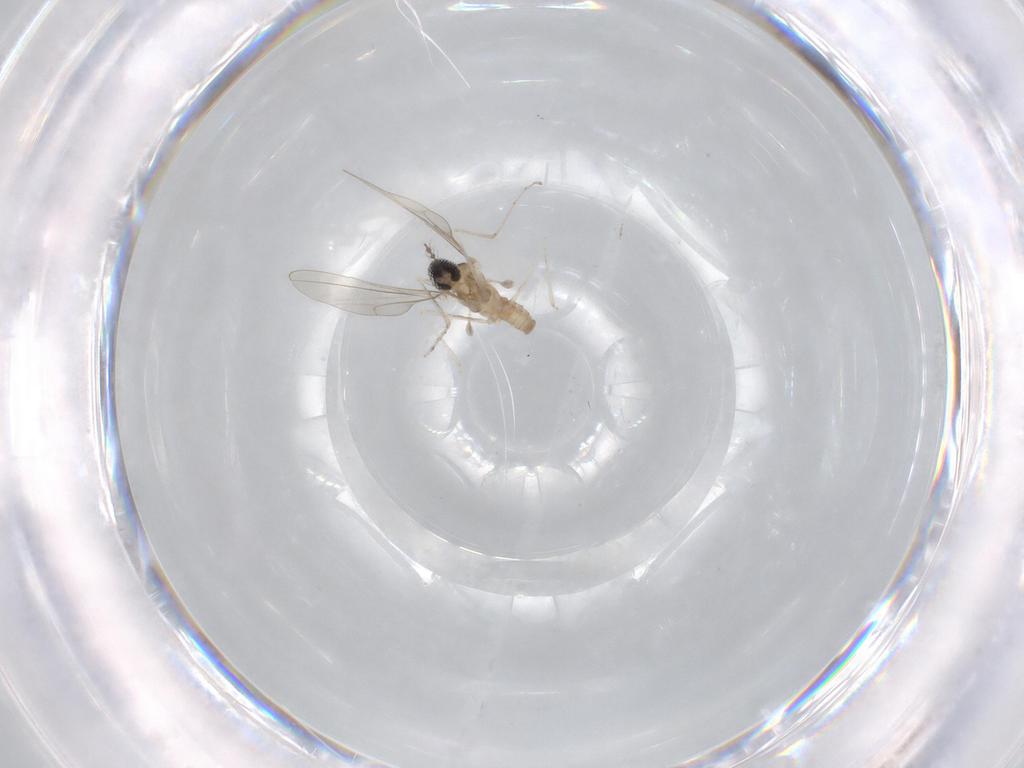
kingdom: Animalia
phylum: Arthropoda
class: Insecta
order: Diptera
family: Cecidomyiidae
